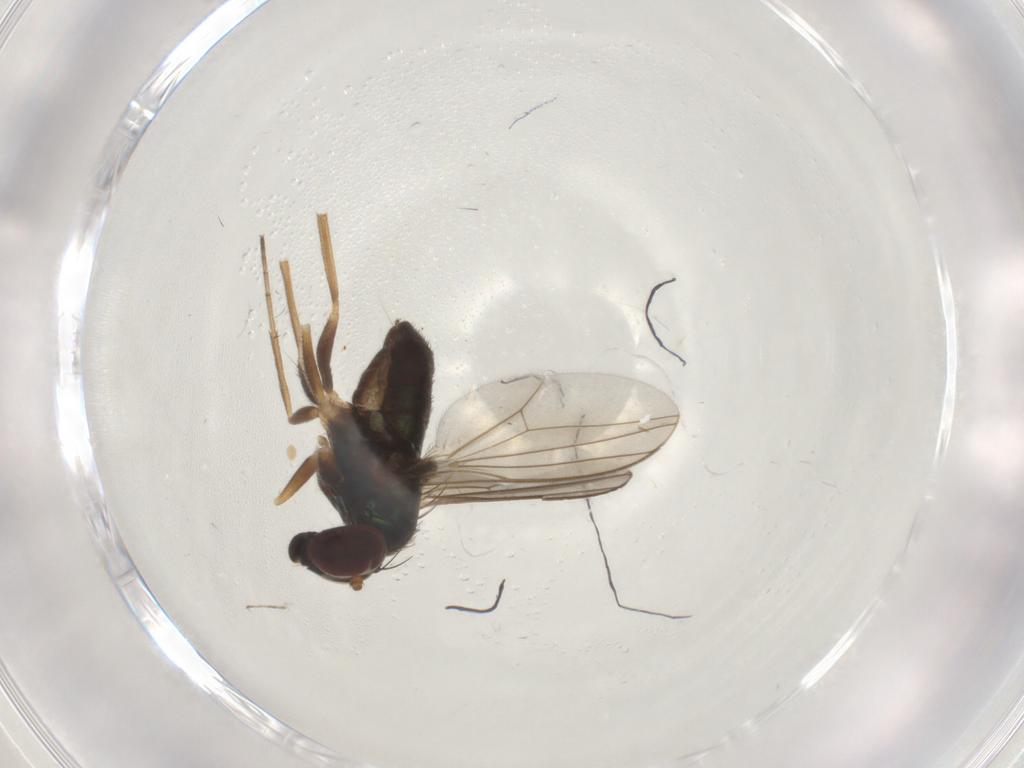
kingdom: Animalia
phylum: Arthropoda
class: Insecta
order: Diptera
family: Dolichopodidae
